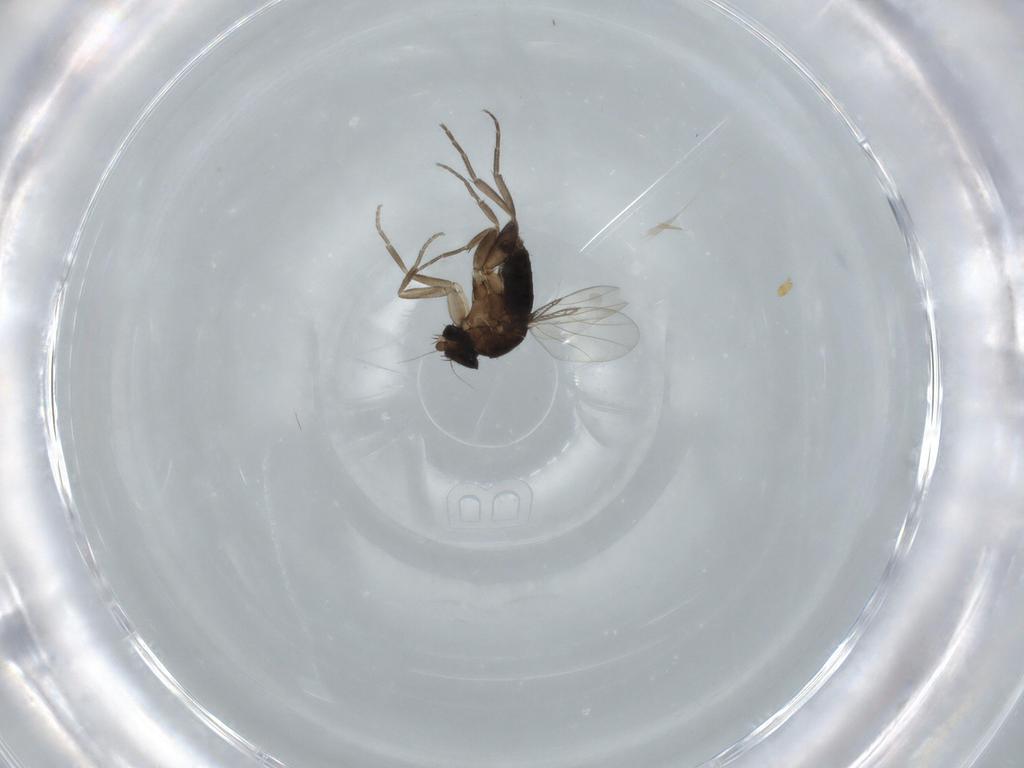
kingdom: Animalia
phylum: Arthropoda
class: Insecta
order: Diptera
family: Phoridae
